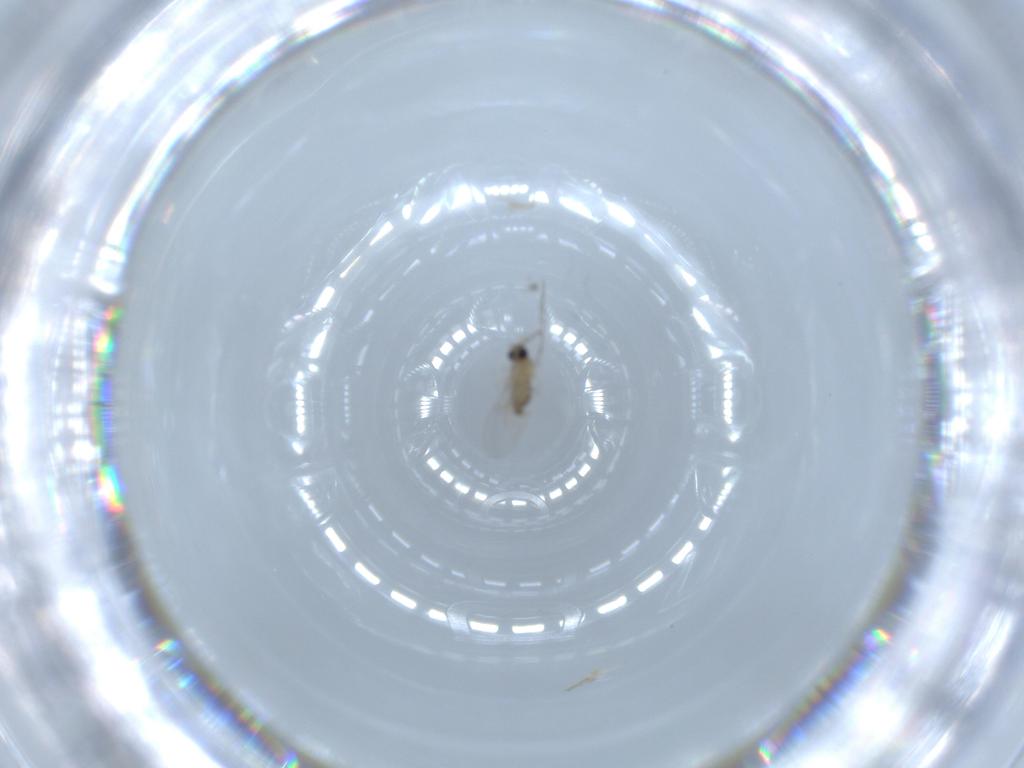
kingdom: Animalia
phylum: Arthropoda
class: Insecta
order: Diptera
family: Cecidomyiidae
